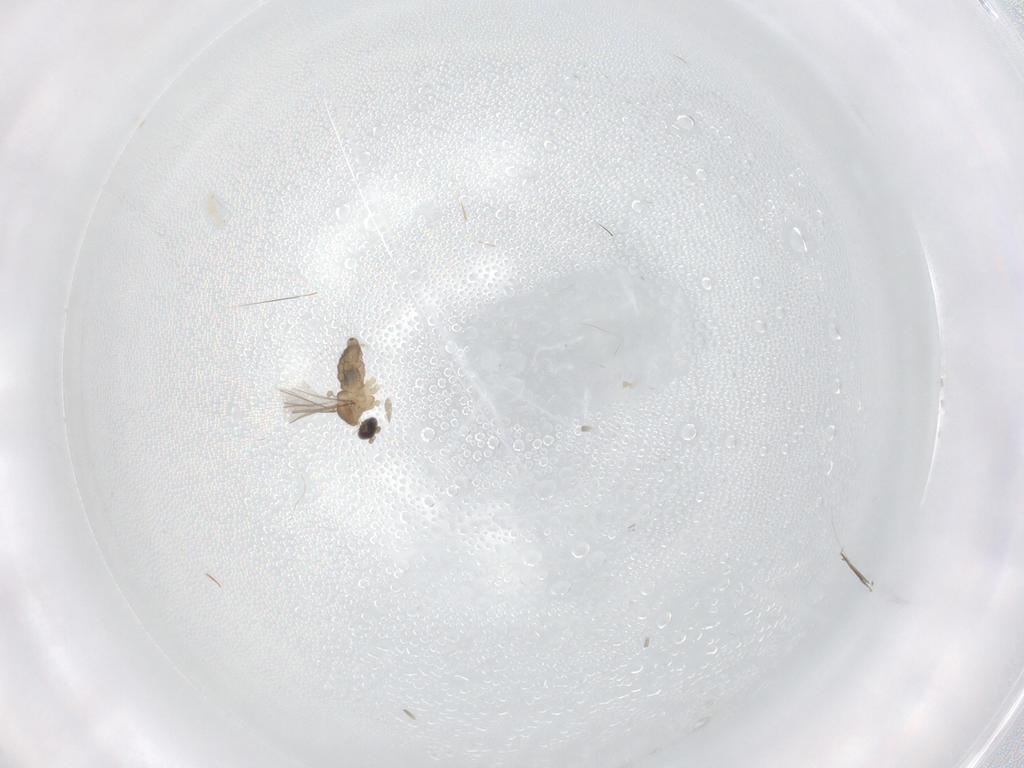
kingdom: Animalia
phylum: Arthropoda
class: Insecta
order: Diptera
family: Cecidomyiidae
